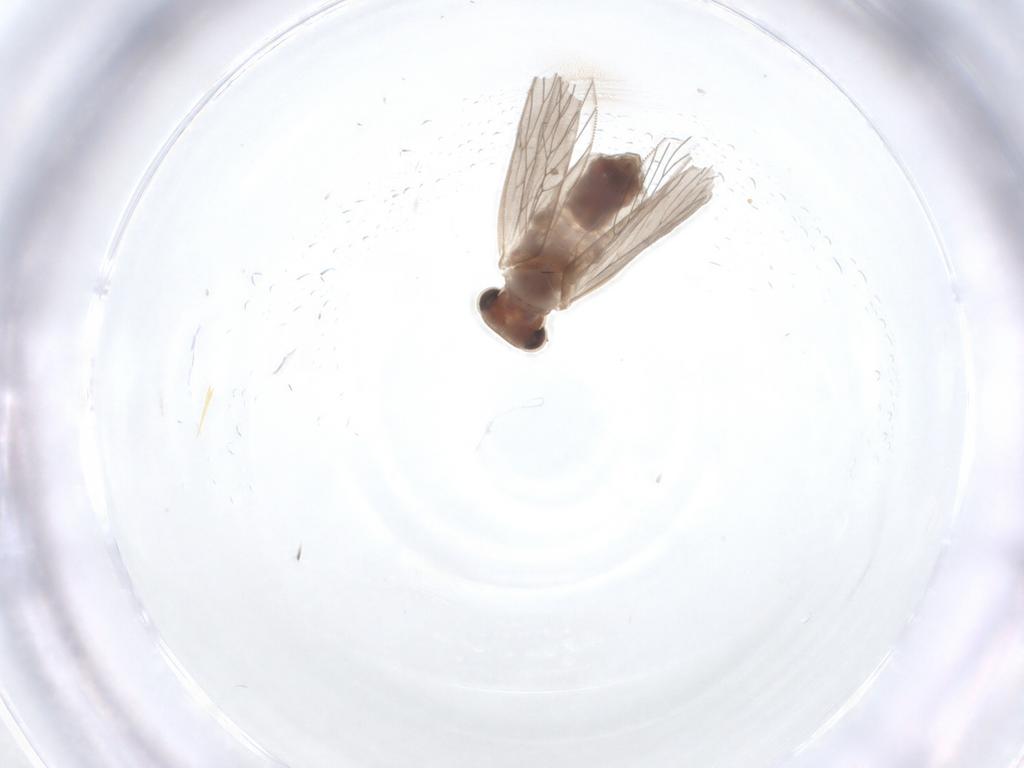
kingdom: Animalia
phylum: Arthropoda
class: Insecta
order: Psocodea
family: Lepidopsocidae
